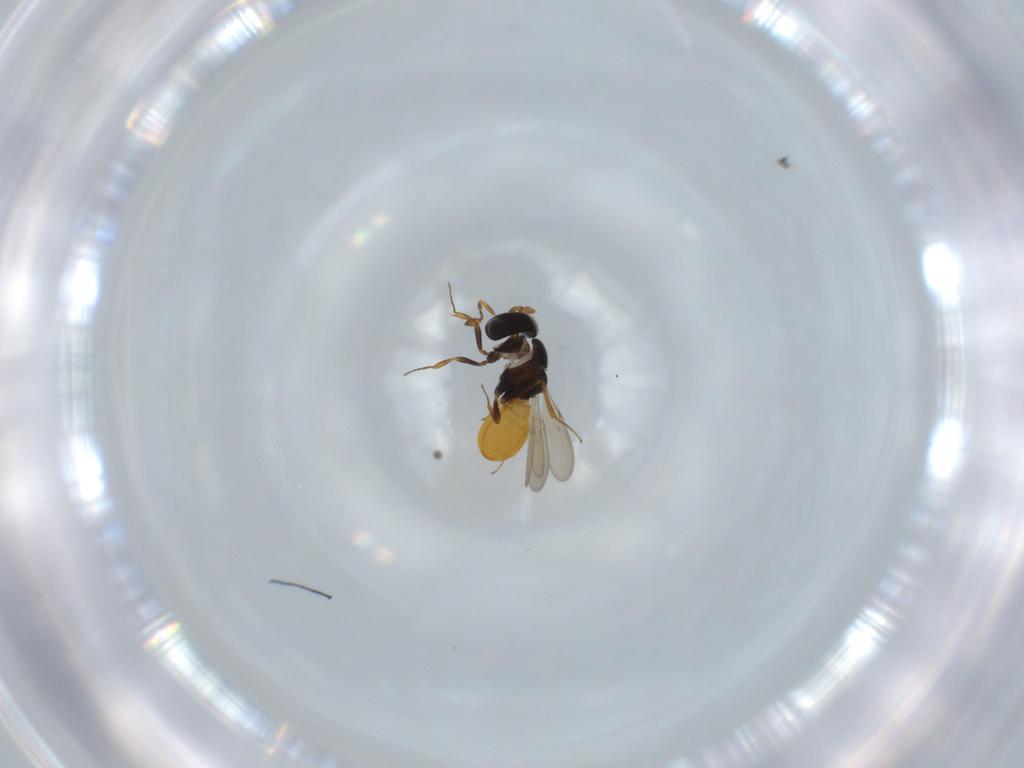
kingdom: Animalia
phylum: Arthropoda
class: Insecta
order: Hymenoptera
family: Scelionidae
